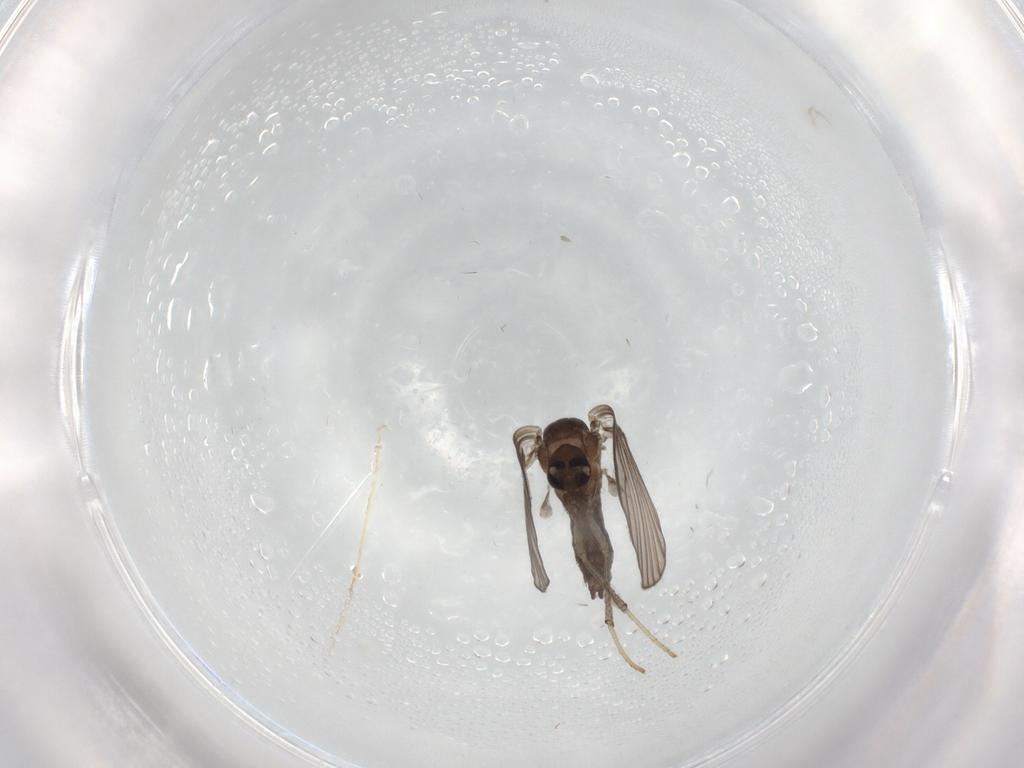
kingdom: Animalia
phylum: Arthropoda
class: Insecta
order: Diptera
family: Psychodidae
